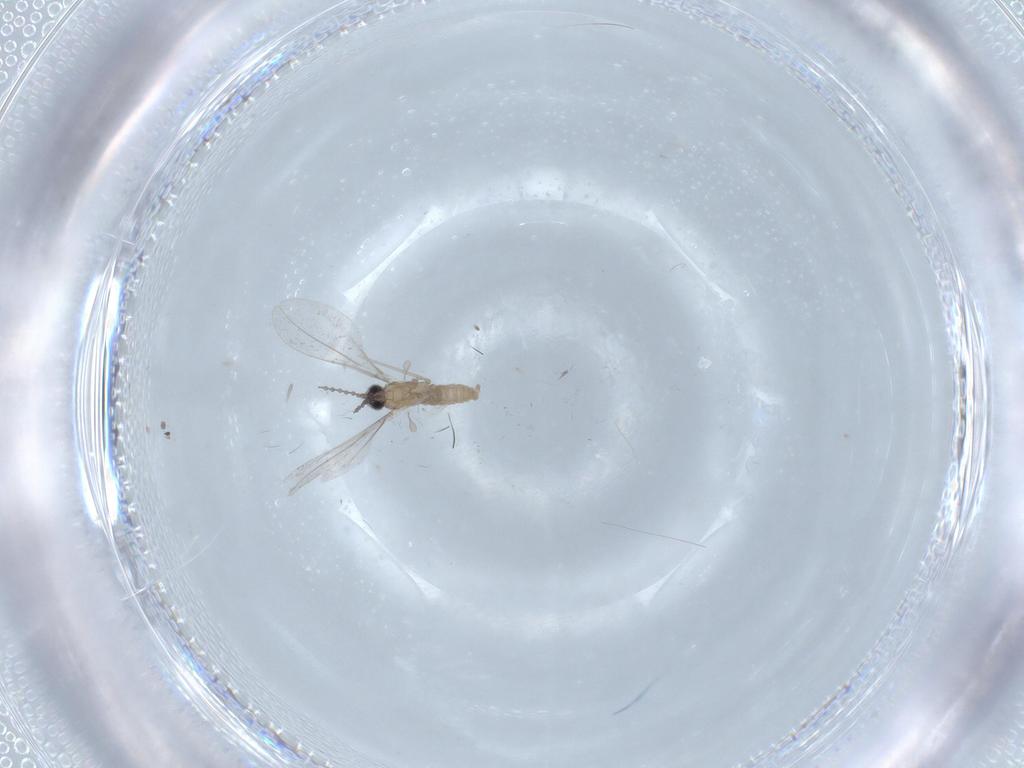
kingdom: Animalia
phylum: Arthropoda
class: Insecta
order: Diptera
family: Cecidomyiidae
